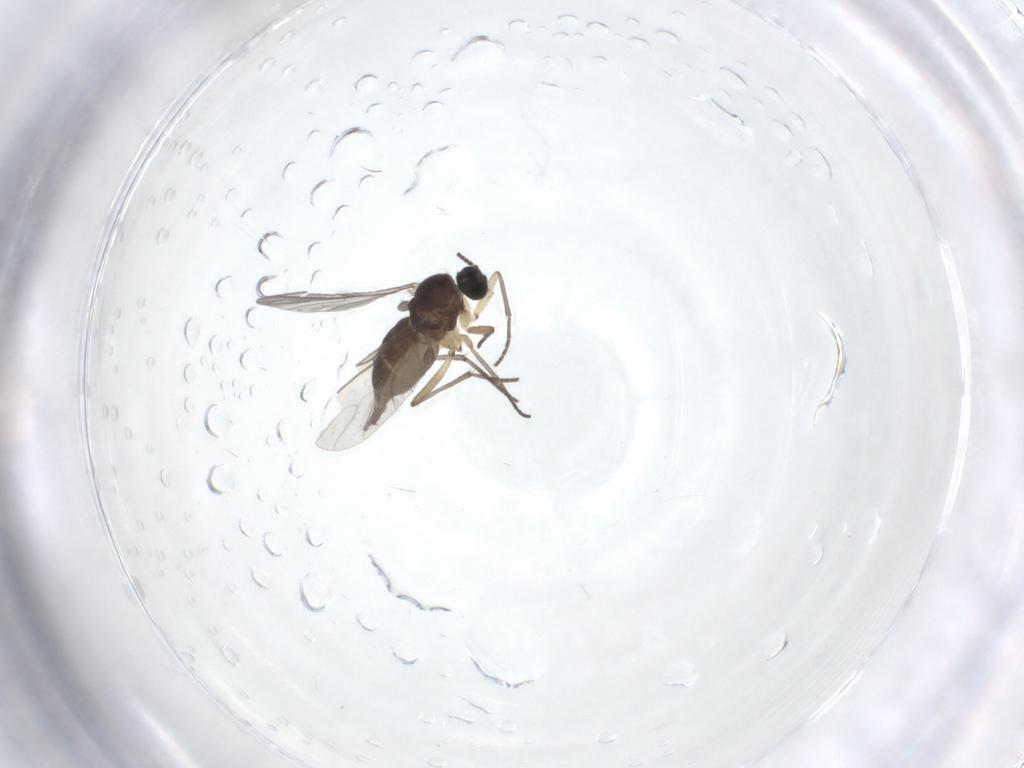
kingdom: Animalia
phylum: Arthropoda
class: Insecta
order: Diptera
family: Sciaridae
